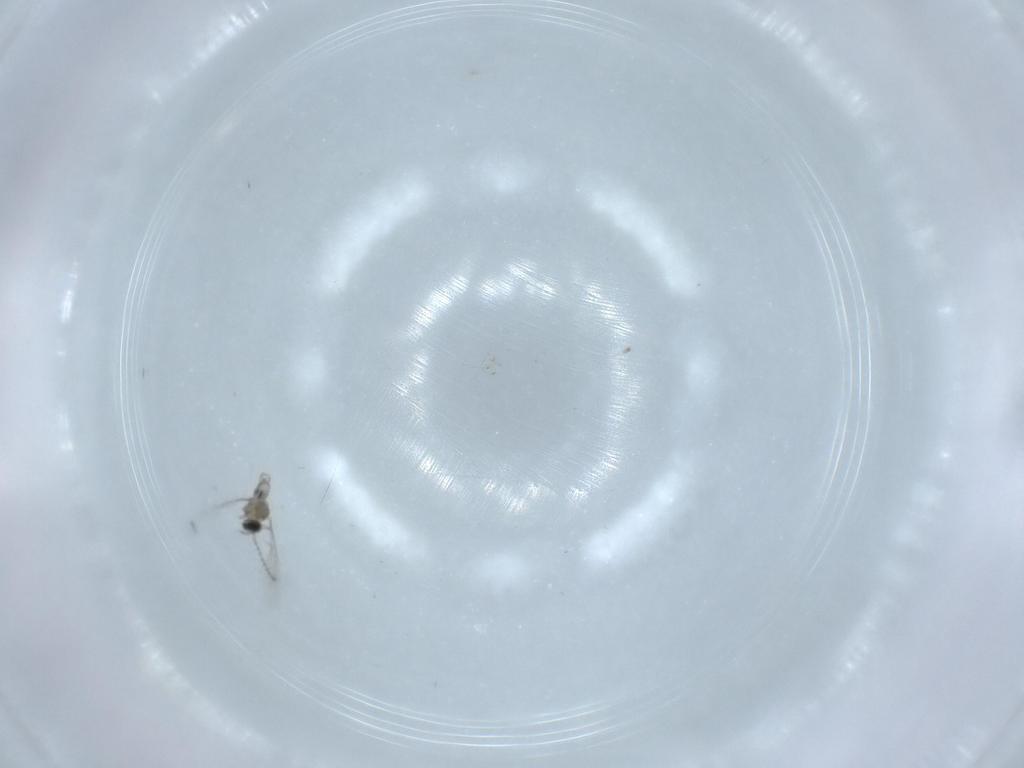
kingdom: Animalia
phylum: Arthropoda
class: Insecta
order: Diptera
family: Cecidomyiidae
